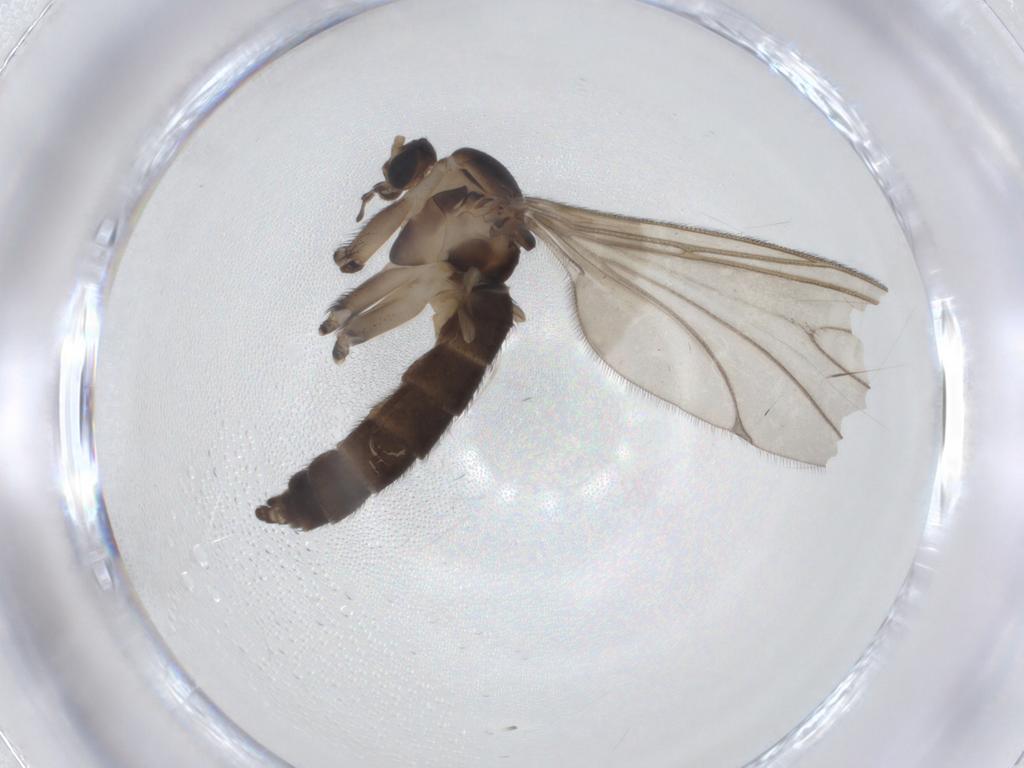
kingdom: Animalia
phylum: Arthropoda
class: Insecta
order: Diptera
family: Sciaridae
